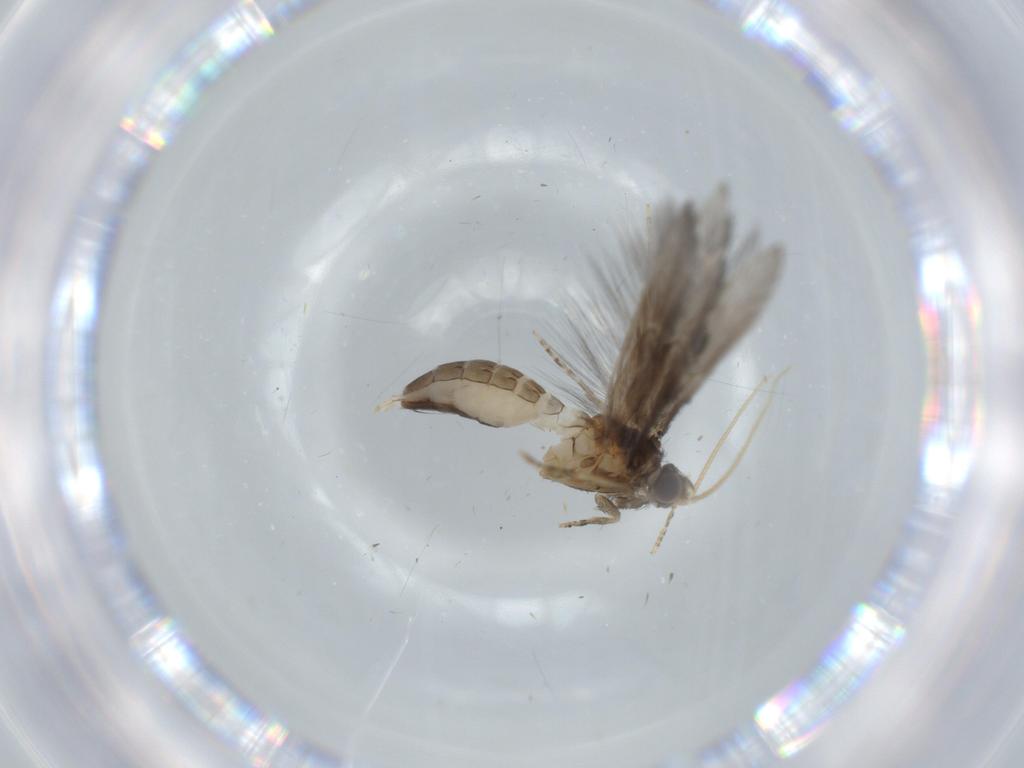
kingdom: Animalia
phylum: Arthropoda
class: Insecta
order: Trichoptera
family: Hydroptilidae
